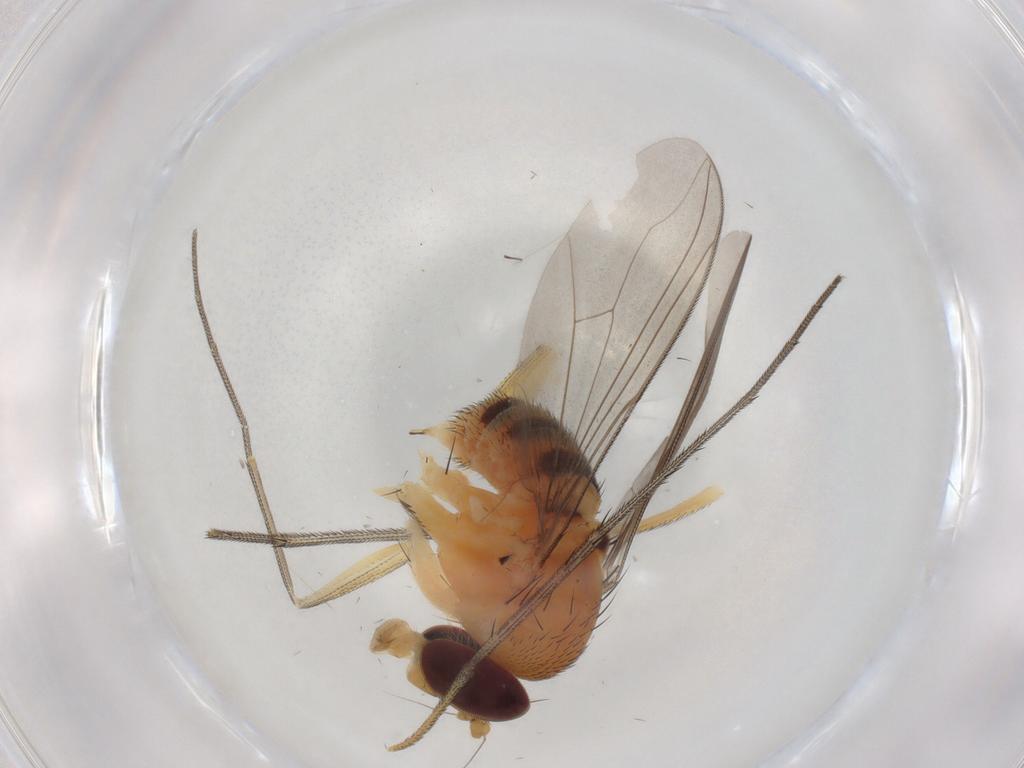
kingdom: Animalia
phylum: Arthropoda
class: Insecta
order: Diptera
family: Dolichopodidae
